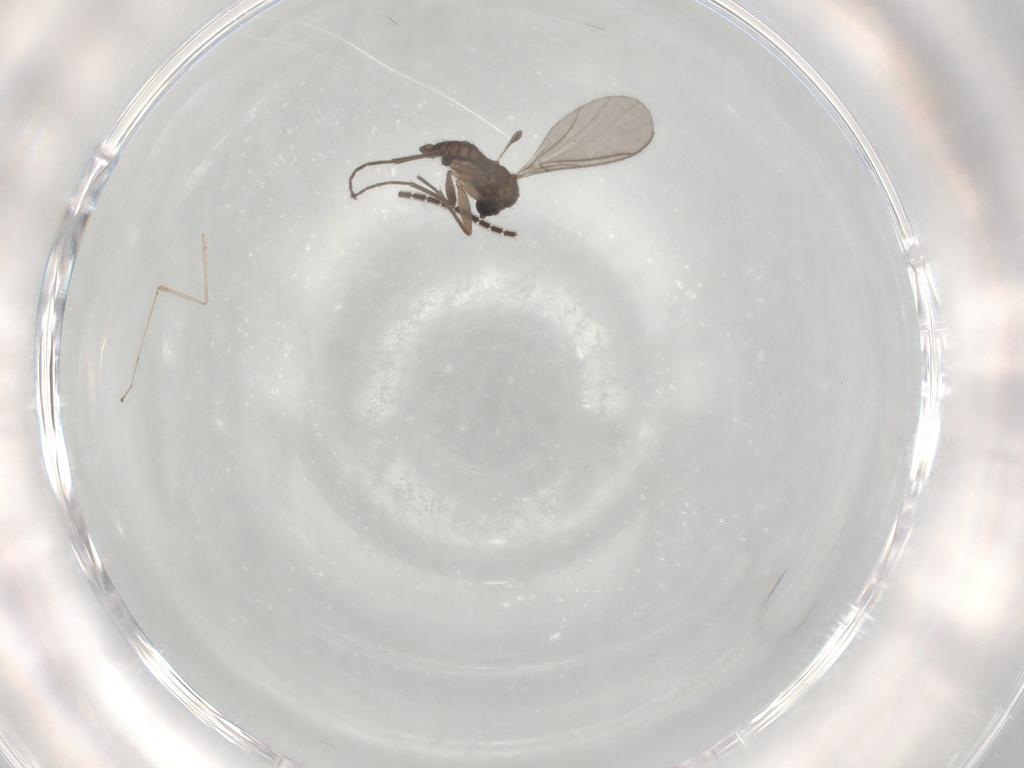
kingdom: Animalia
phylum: Arthropoda
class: Insecta
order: Diptera
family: Cecidomyiidae
